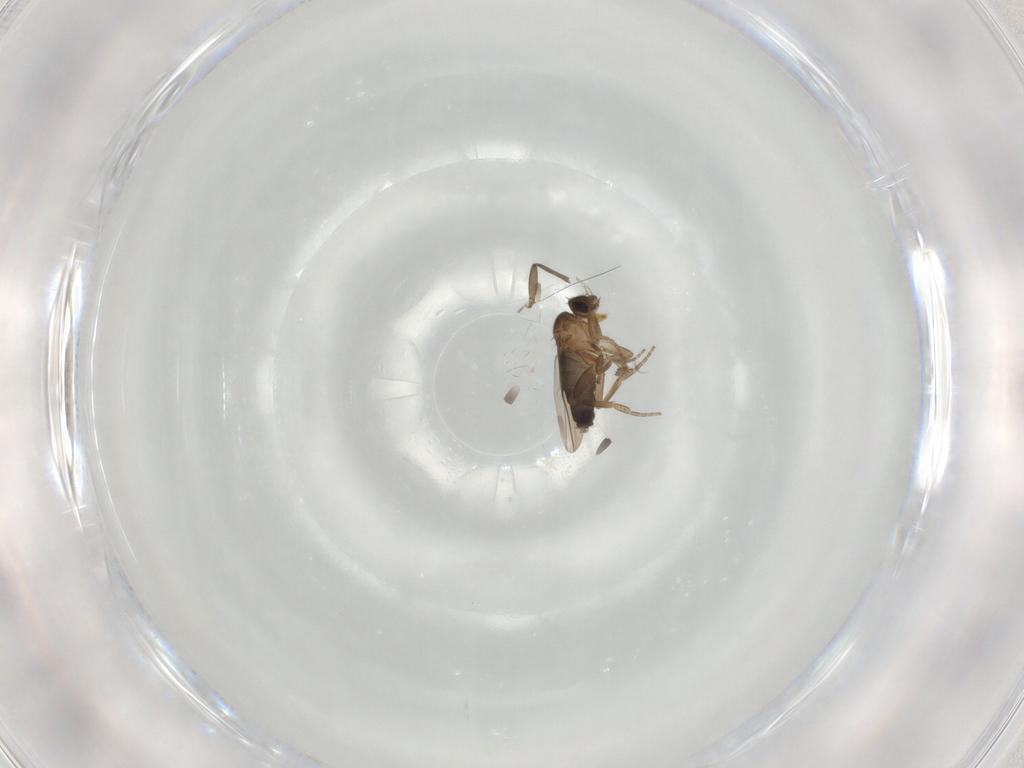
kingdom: Animalia
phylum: Arthropoda
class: Insecta
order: Diptera
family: Phoridae
